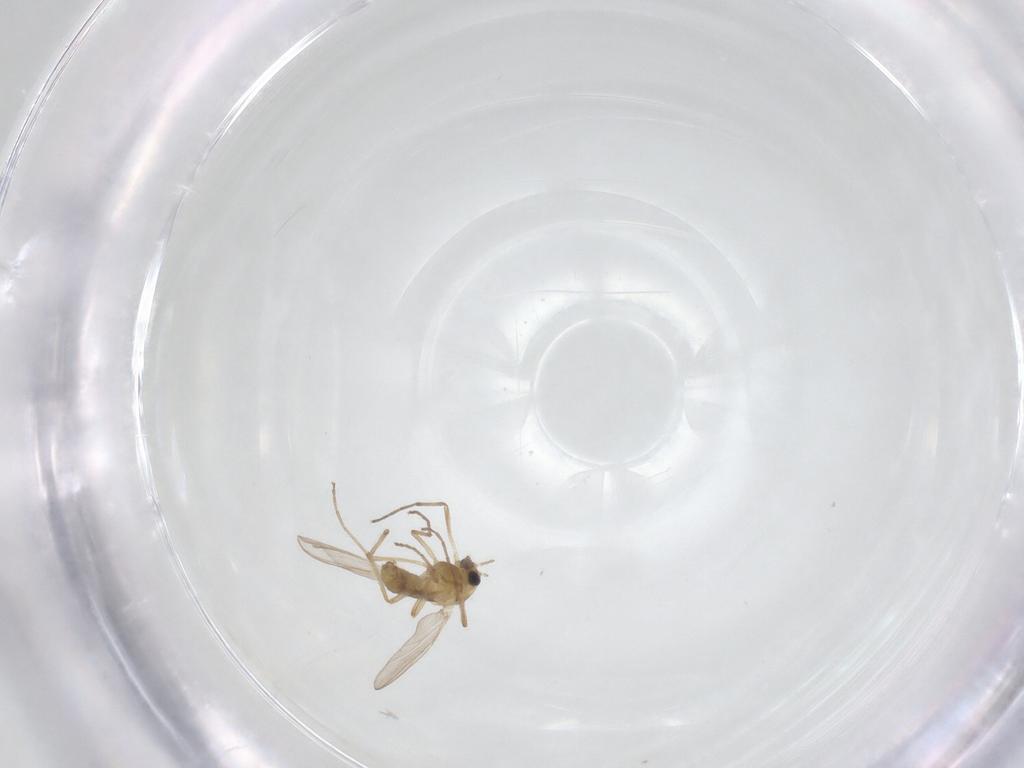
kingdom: Animalia
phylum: Arthropoda
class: Insecta
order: Diptera
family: Chironomidae
